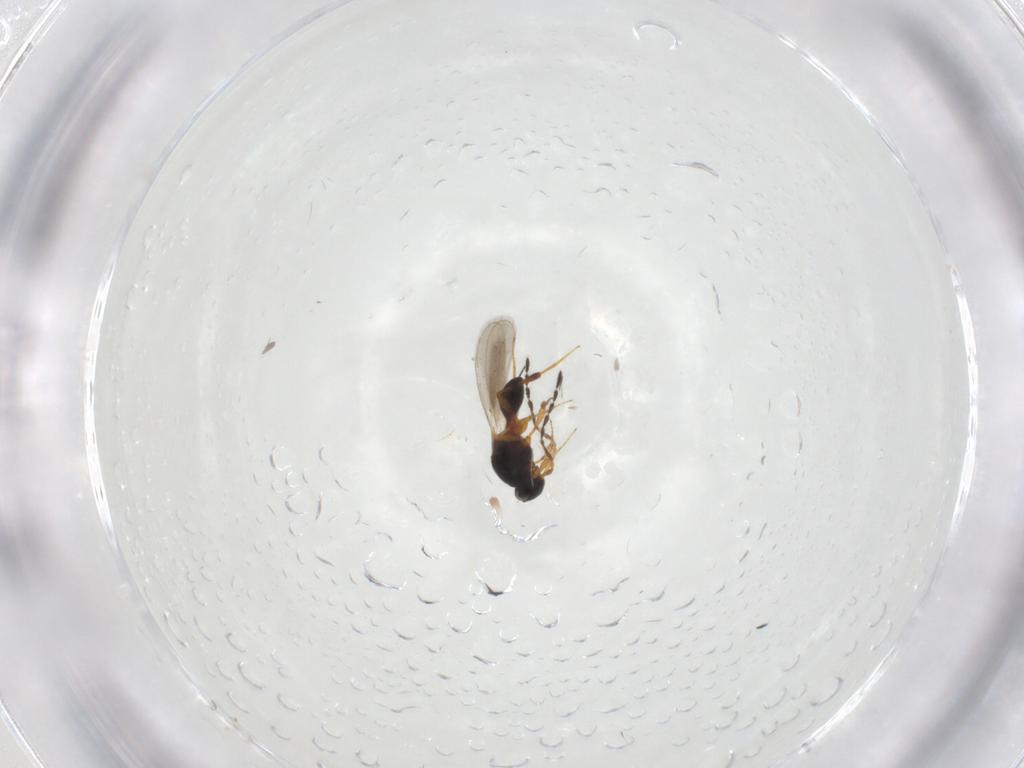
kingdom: Animalia
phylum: Arthropoda
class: Insecta
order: Hymenoptera
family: Platygastridae
